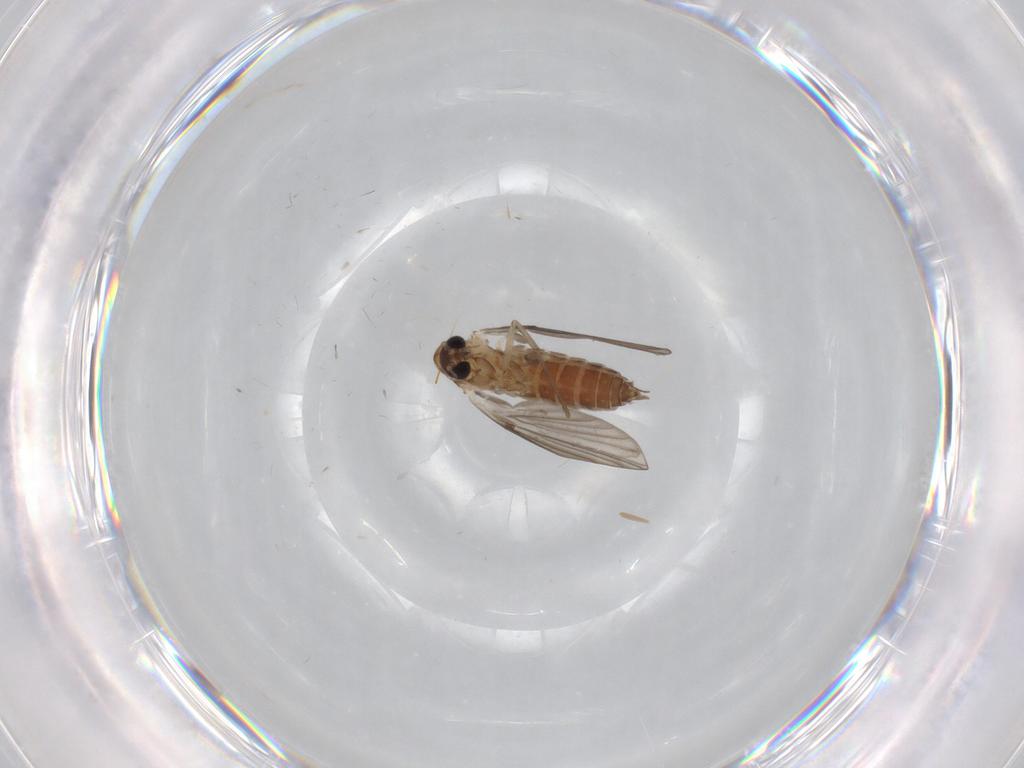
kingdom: Animalia
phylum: Arthropoda
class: Insecta
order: Diptera
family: Limoniidae
